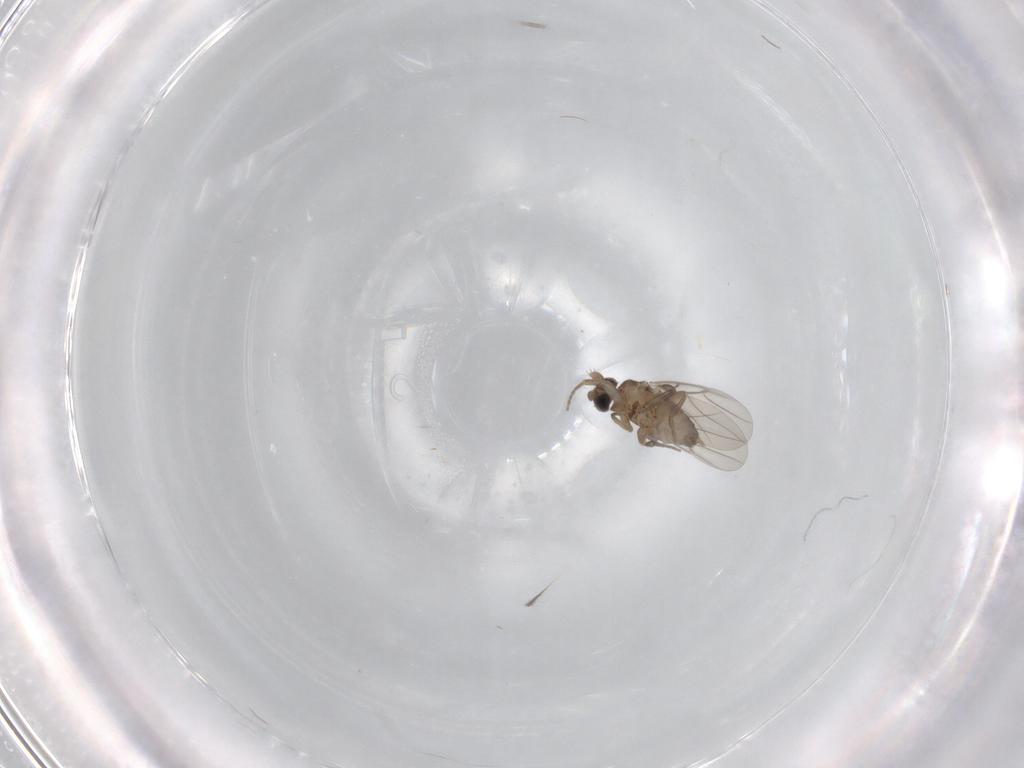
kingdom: Animalia
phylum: Arthropoda
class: Insecta
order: Diptera
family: Phoridae
